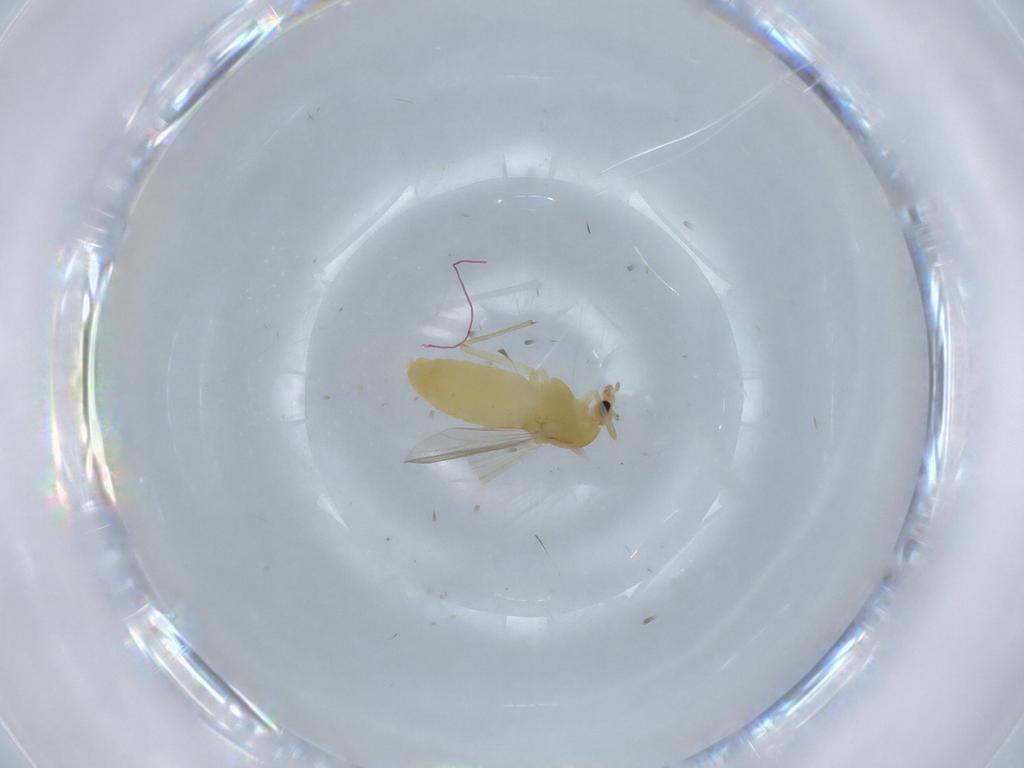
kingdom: Animalia
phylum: Arthropoda
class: Insecta
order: Diptera
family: Chironomidae
